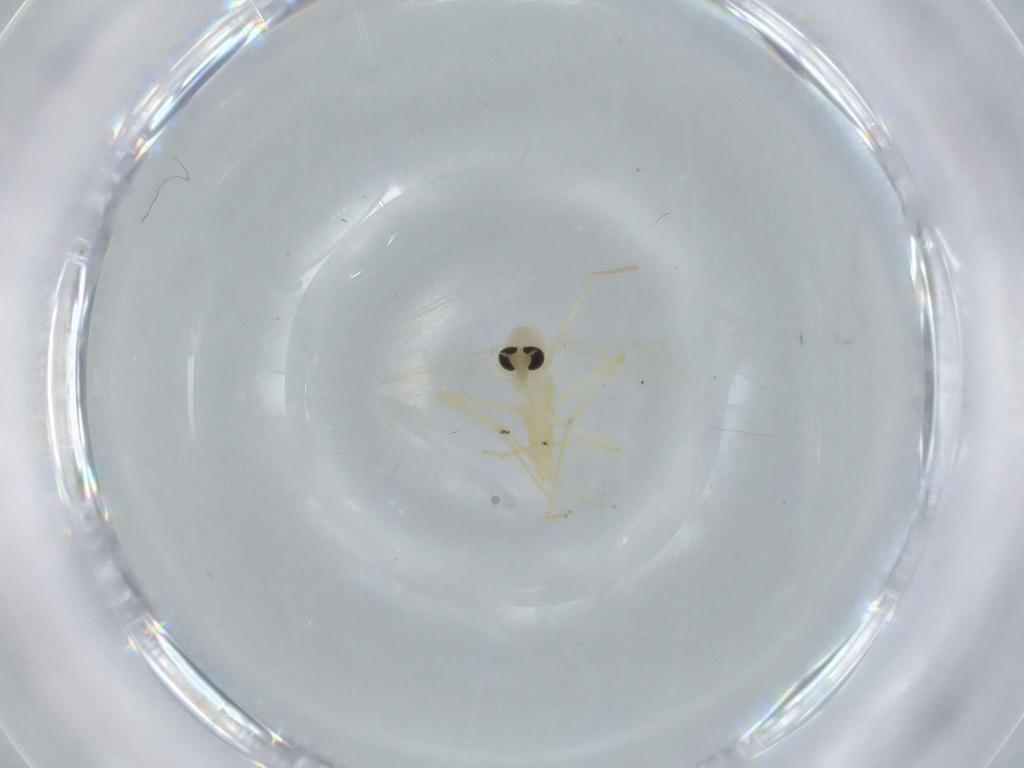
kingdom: Animalia
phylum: Arthropoda
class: Insecta
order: Diptera
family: Chironomidae
